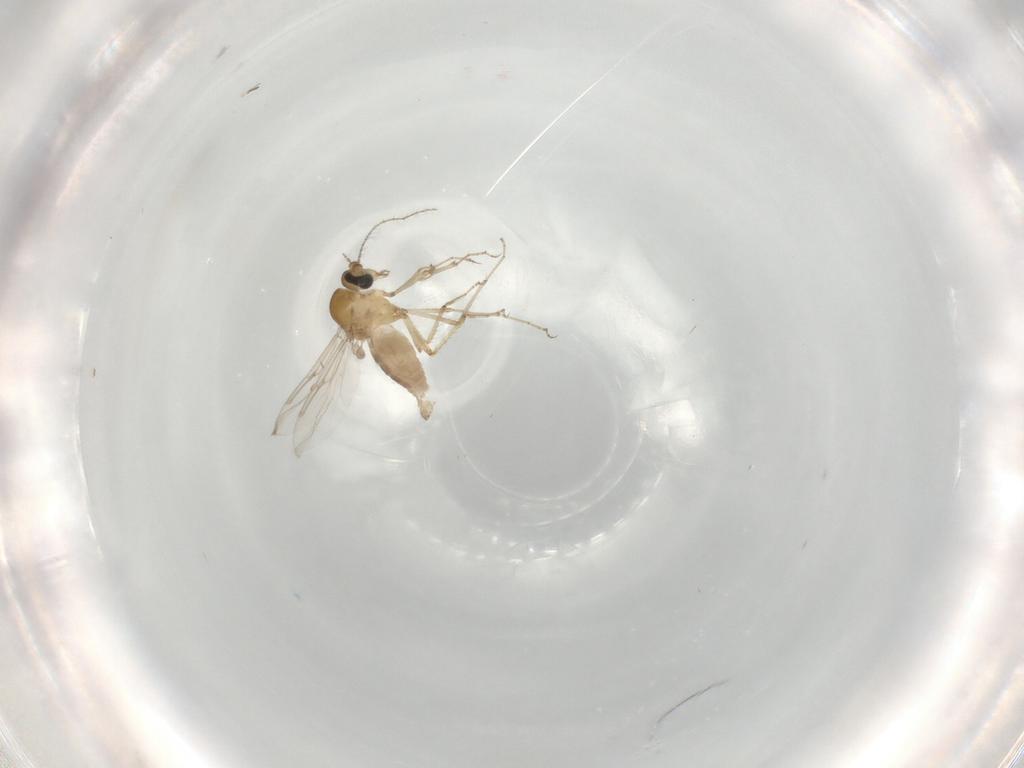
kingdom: Animalia
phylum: Arthropoda
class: Insecta
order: Diptera
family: Ceratopogonidae
